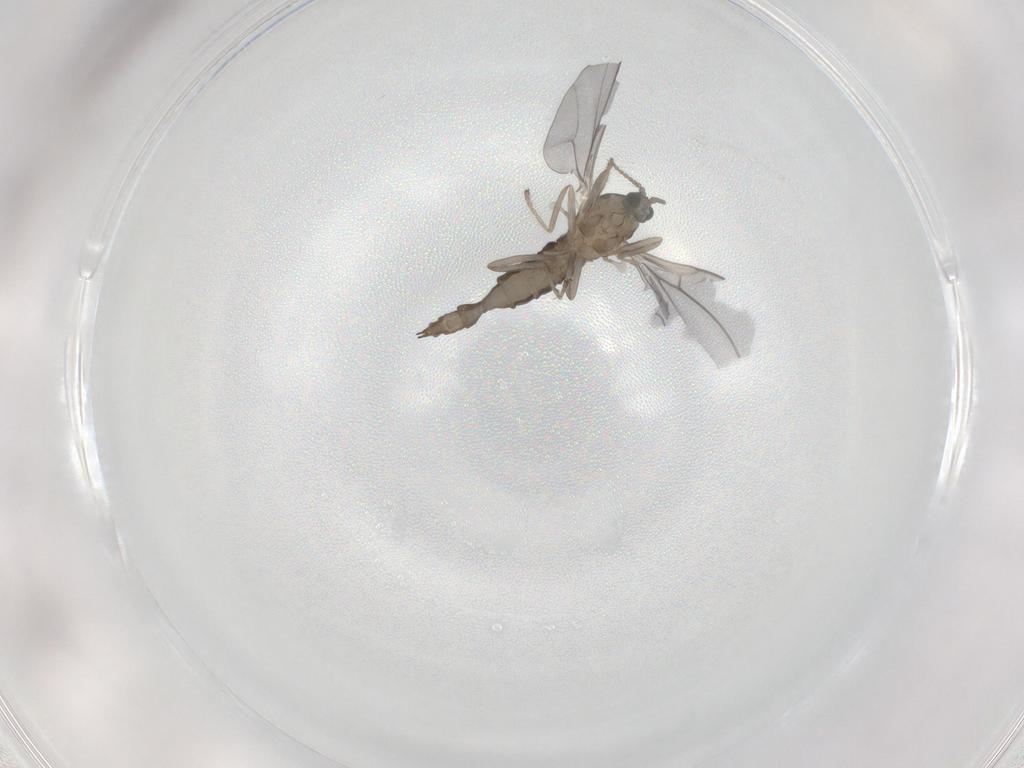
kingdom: Animalia
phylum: Arthropoda
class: Insecta
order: Diptera
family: Cecidomyiidae
